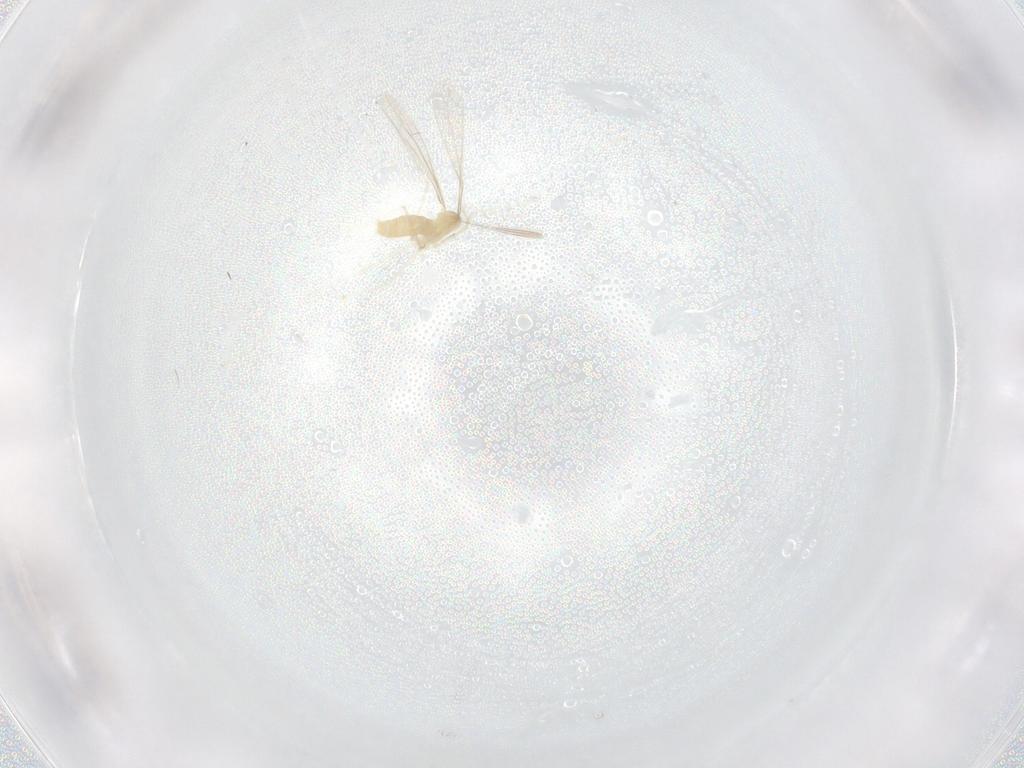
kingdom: Animalia
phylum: Arthropoda
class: Insecta
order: Diptera
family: Cecidomyiidae
